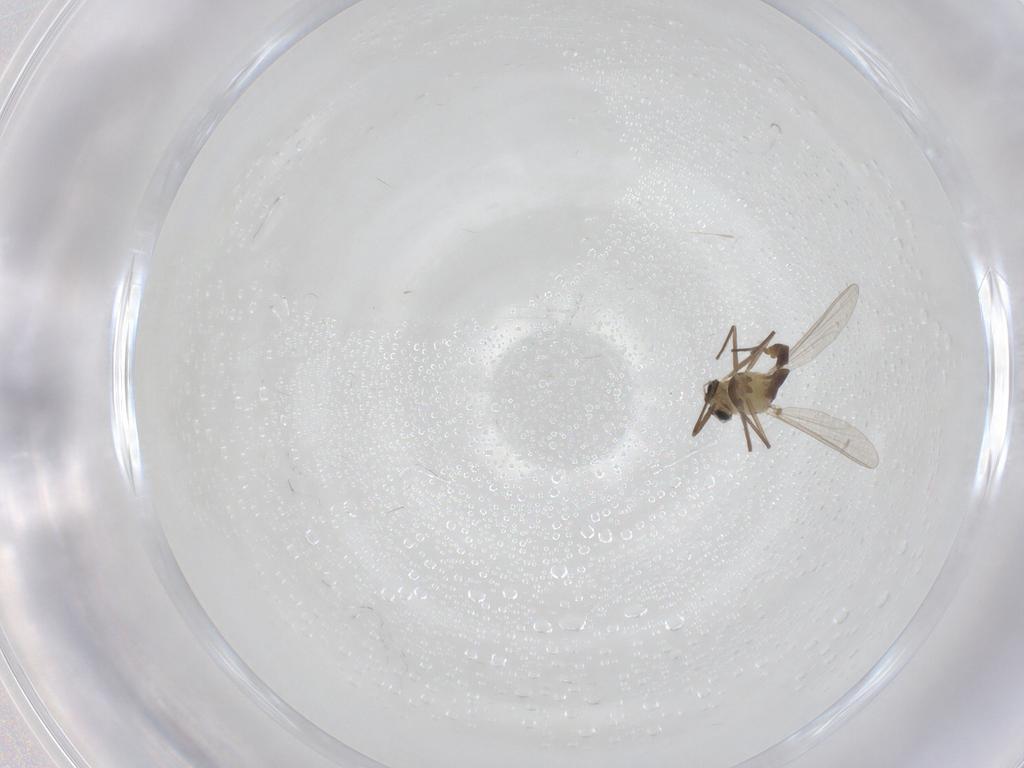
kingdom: Animalia
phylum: Arthropoda
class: Insecta
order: Diptera
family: Chironomidae
